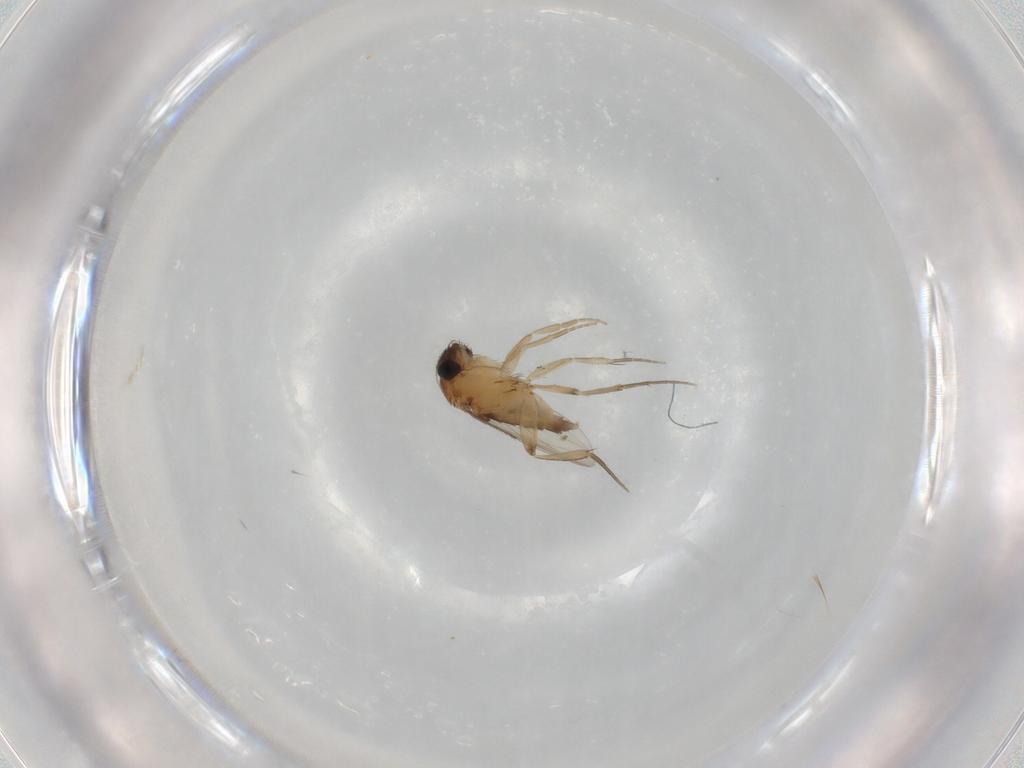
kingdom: Animalia
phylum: Arthropoda
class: Insecta
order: Diptera
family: Phoridae
